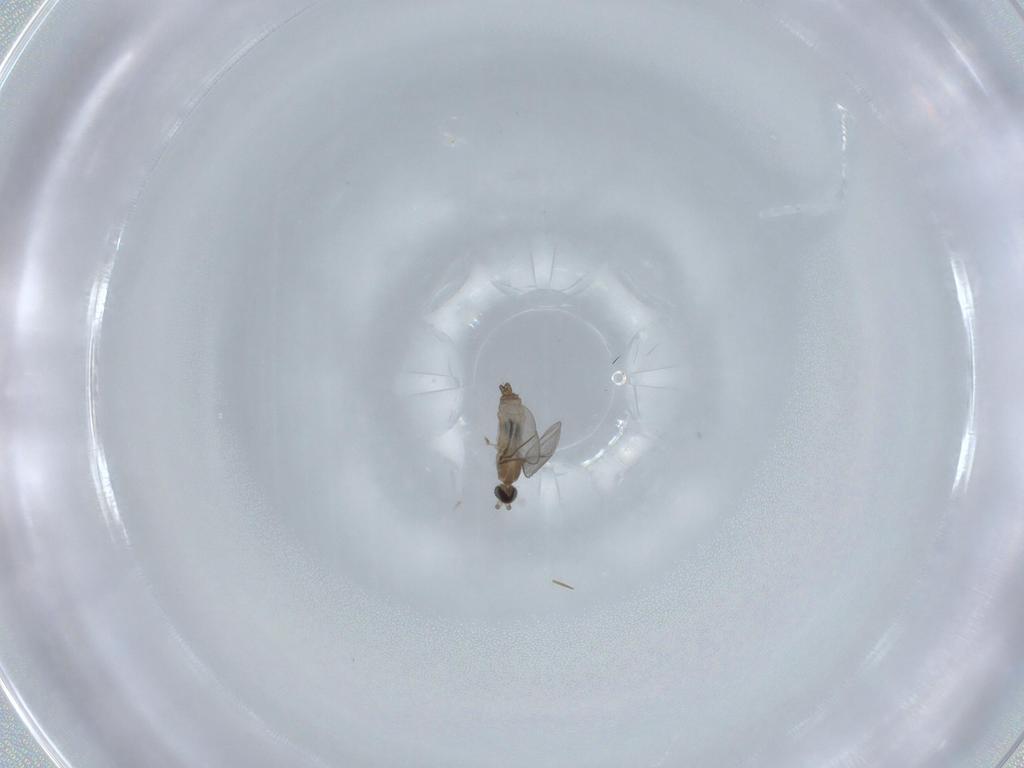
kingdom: Animalia
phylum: Arthropoda
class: Insecta
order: Diptera
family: Cecidomyiidae
